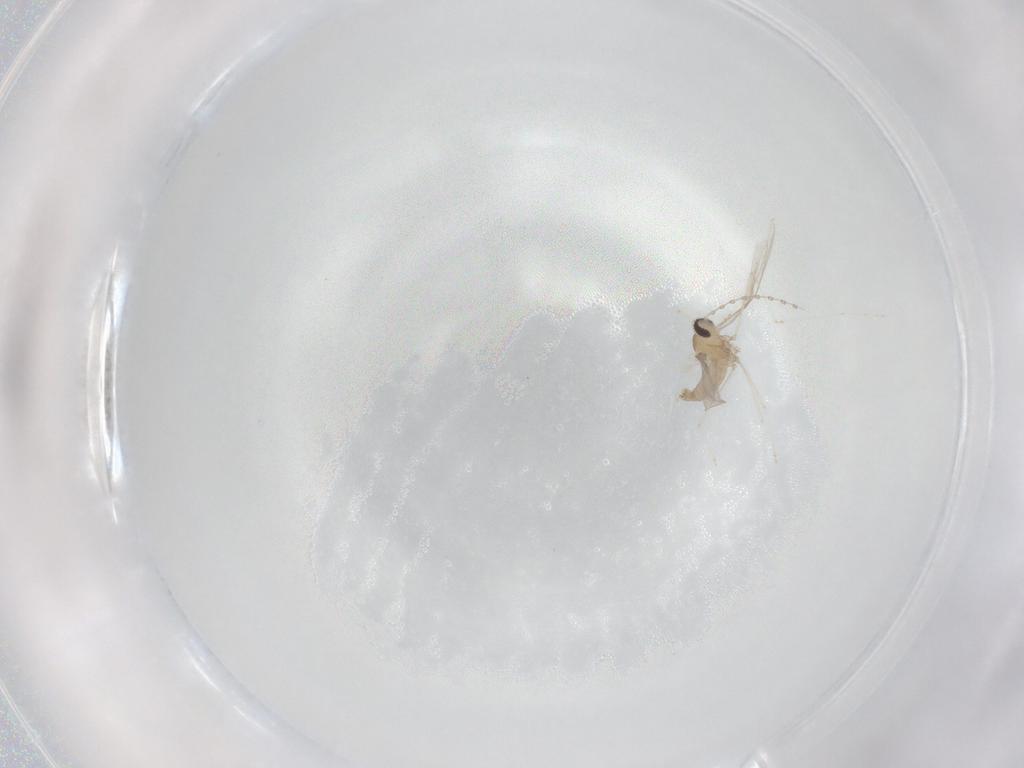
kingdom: Animalia
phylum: Arthropoda
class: Insecta
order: Diptera
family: Cecidomyiidae
